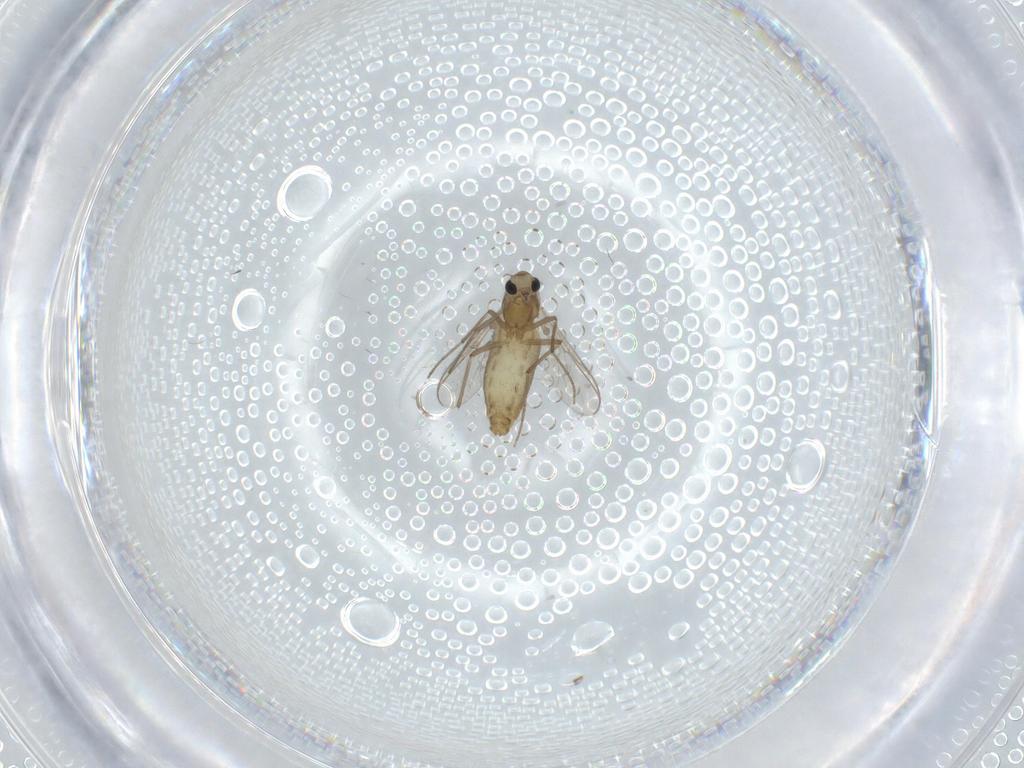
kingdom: Animalia
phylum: Arthropoda
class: Insecta
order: Diptera
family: Chironomidae
